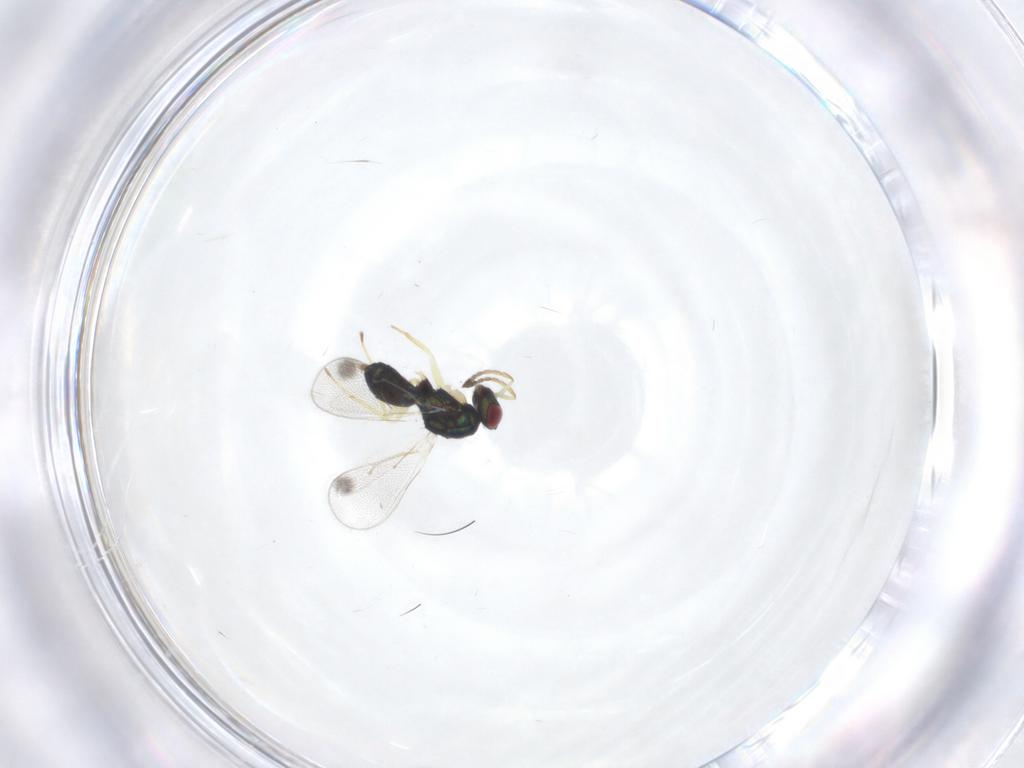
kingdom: Animalia
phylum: Arthropoda
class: Insecta
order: Hymenoptera
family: Eulophidae
